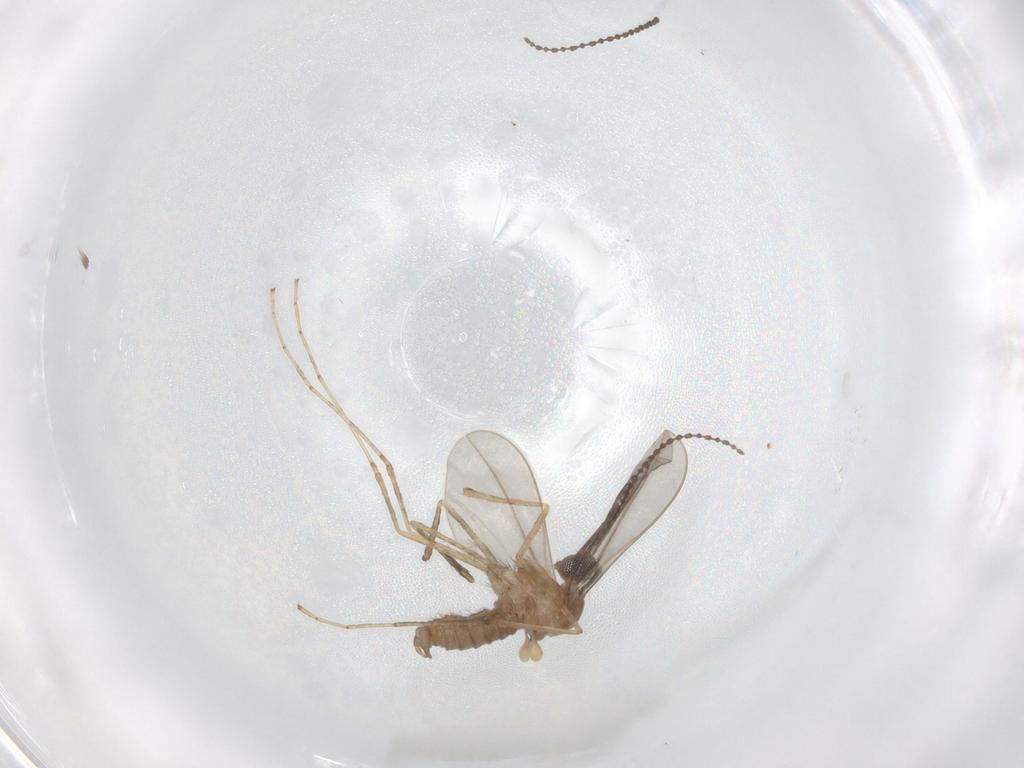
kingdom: Animalia
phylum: Arthropoda
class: Insecta
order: Diptera
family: Cecidomyiidae
